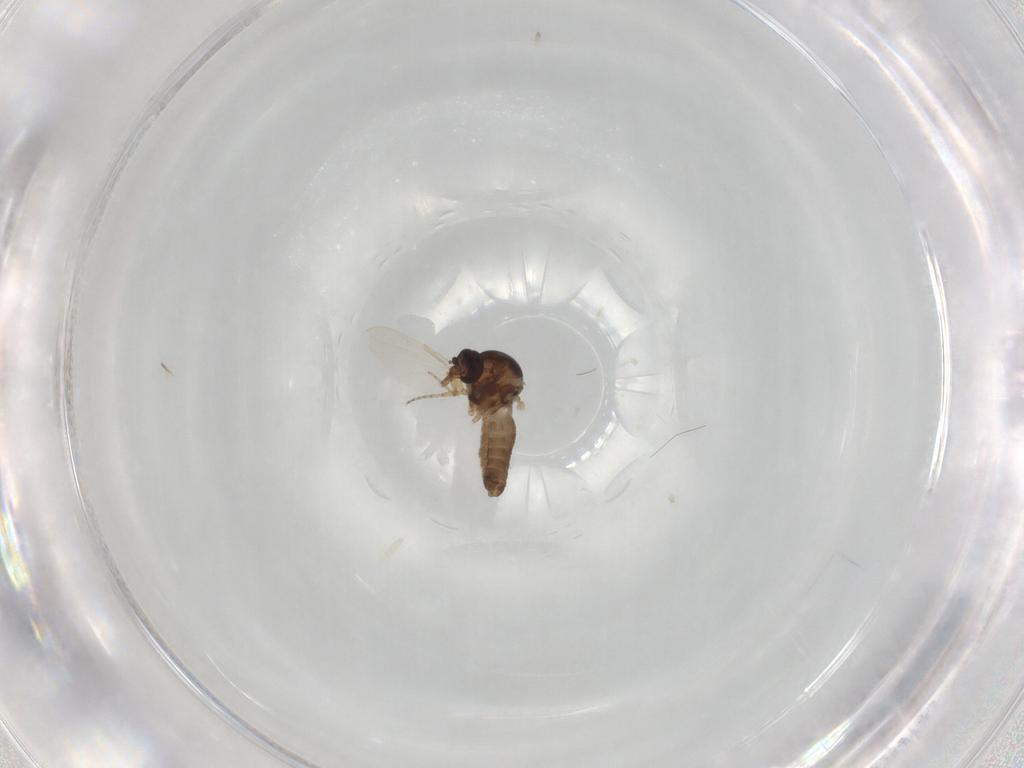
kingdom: Animalia
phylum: Arthropoda
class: Insecta
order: Diptera
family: Ceratopogonidae
